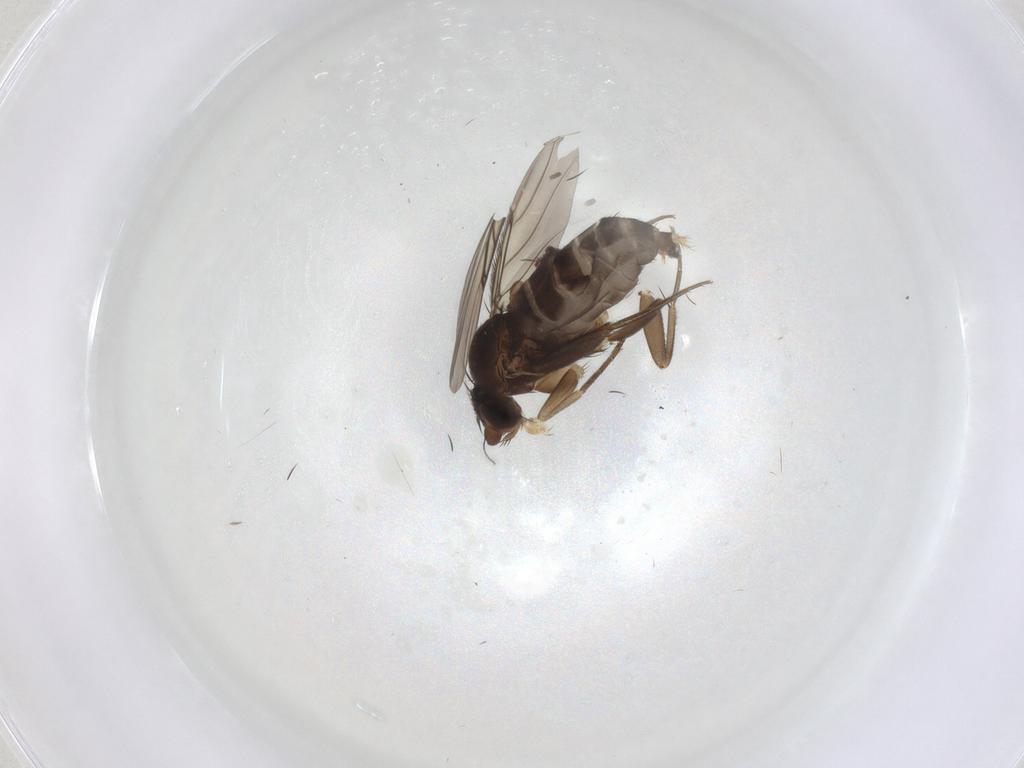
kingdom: Animalia
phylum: Arthropoda
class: Insecta
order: Diptera
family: Phoridae
